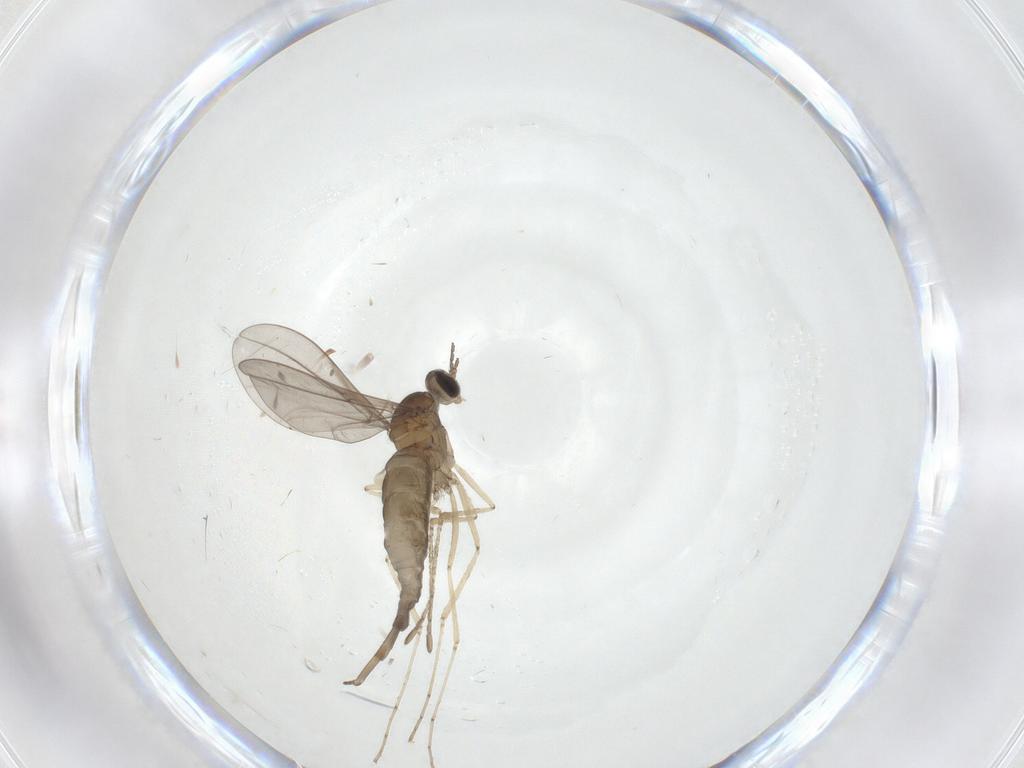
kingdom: Animalia
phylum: Arthropoda
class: Insecta
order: Diptera
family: Cecidomyiidae
